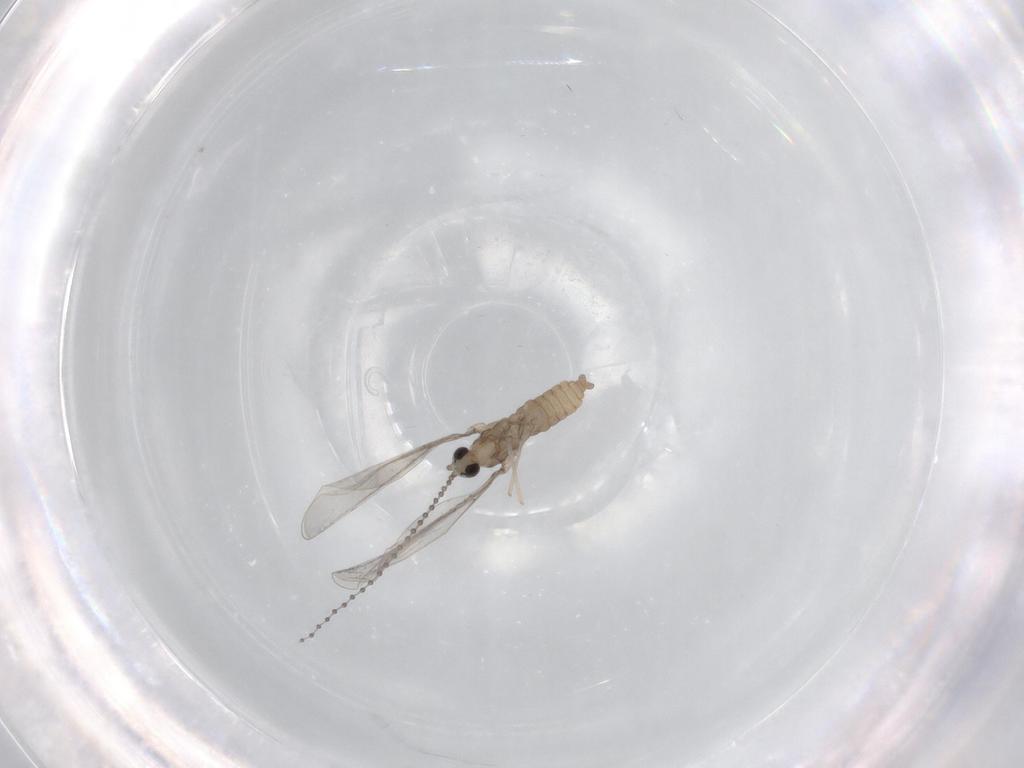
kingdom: Animalia
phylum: Arthropoda
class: Insecta
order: Diptera
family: Cecidomyiidae
